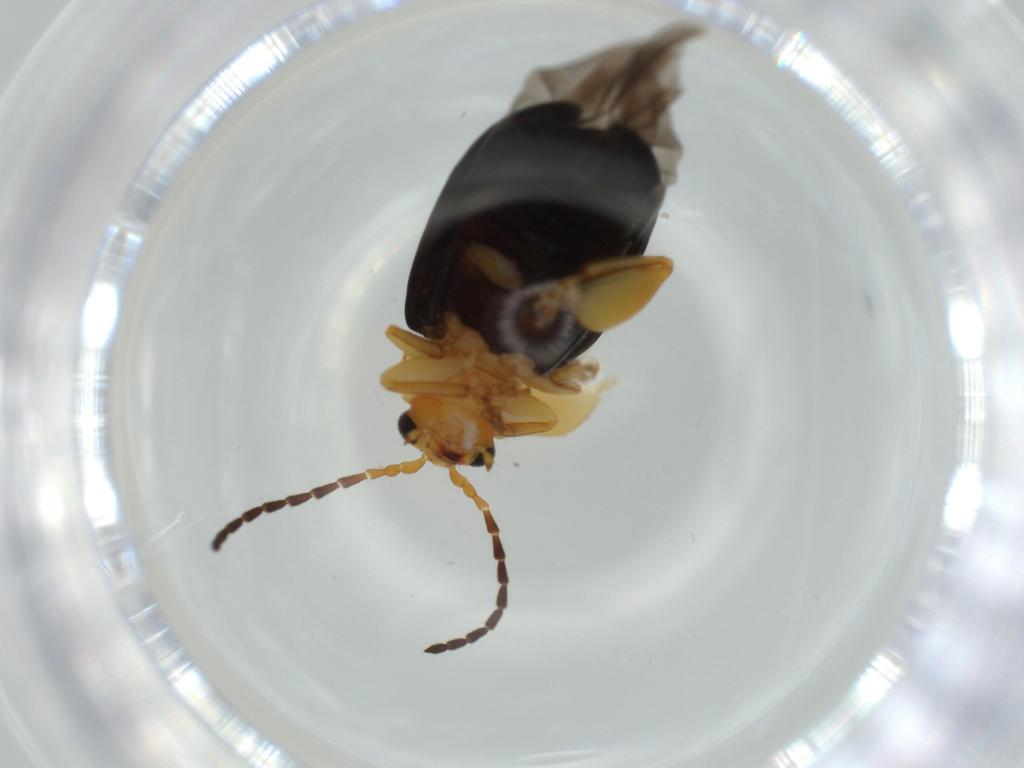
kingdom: Animalia
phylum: Arthropoda
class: Insecta
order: Coleoptera
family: Chrysomelidae
